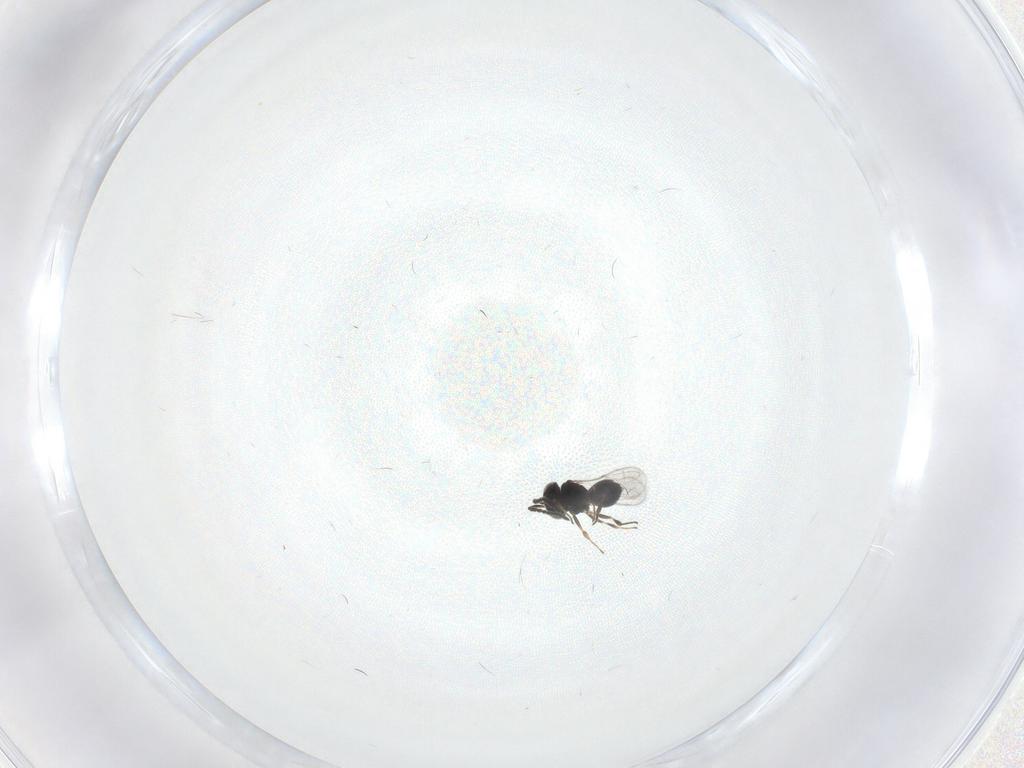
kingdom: Animalia
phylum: Arthropoda
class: Insecta
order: Hymenoptera
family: Scelionidae
